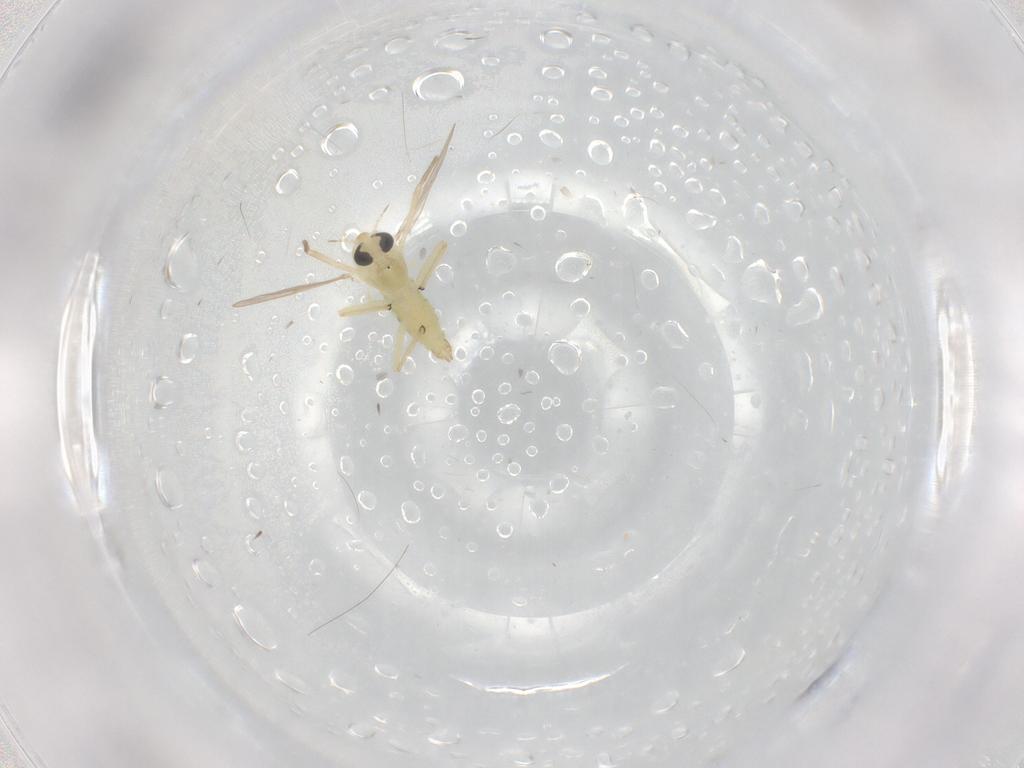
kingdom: Animalia
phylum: Arthropoda
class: Insecta
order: Diptera
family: Chironomidae
